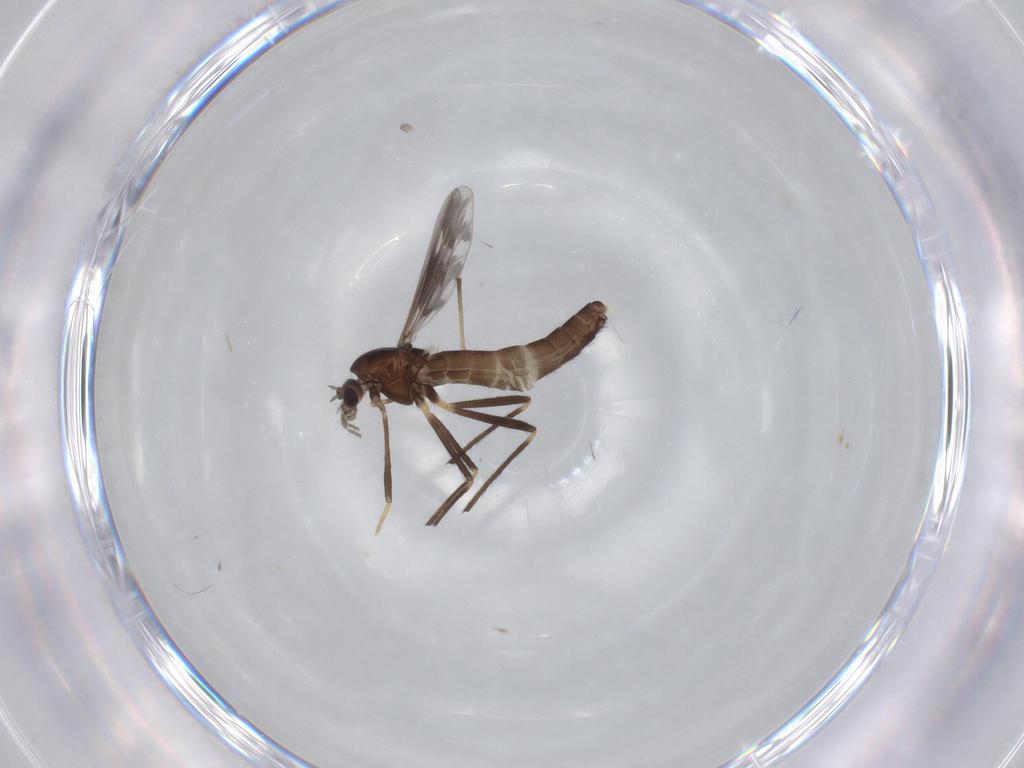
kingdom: Animalia
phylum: Arthropoda
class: Insecta
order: Diptera
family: Chironomidae
